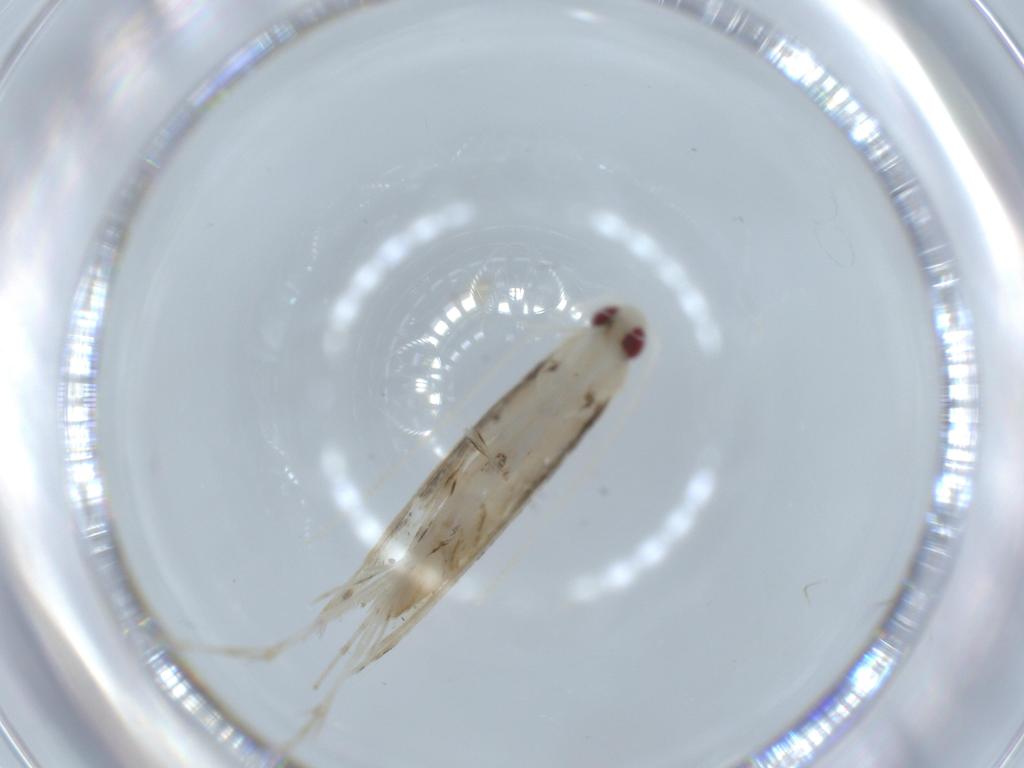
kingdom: Animalia
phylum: Arthropoda
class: Insecta
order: Lepidoptera
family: Gracillariidae
